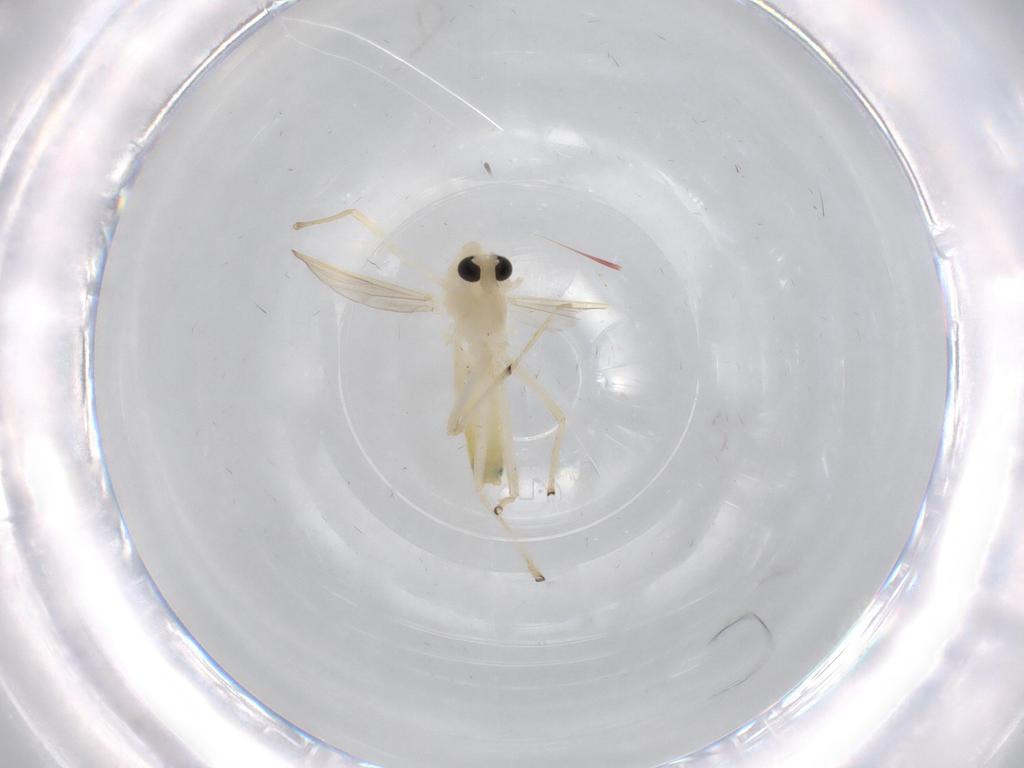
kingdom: Animalia
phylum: Arthropoda
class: Insecta
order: Diptera
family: Limoniidae
